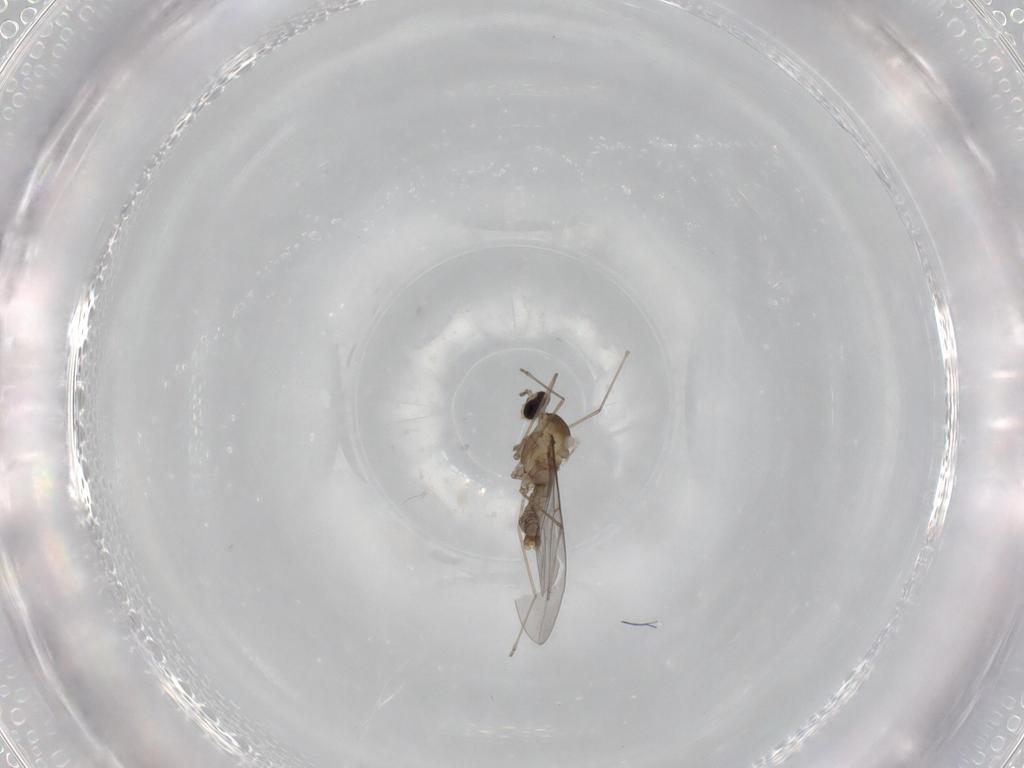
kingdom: Animalia
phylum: Arthropoda
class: Insecta
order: Diptera
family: Cecidomyiidae
